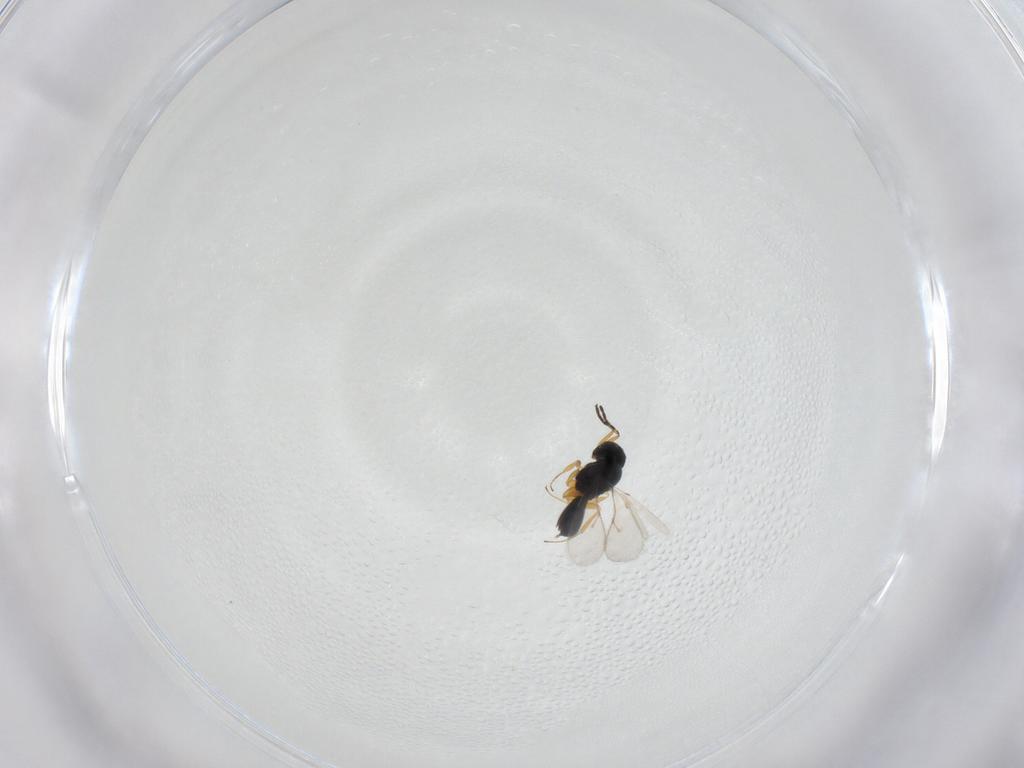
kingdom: Animalia
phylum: Arthropoda
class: Insecta
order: Hymenoptera
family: Scelionidae
